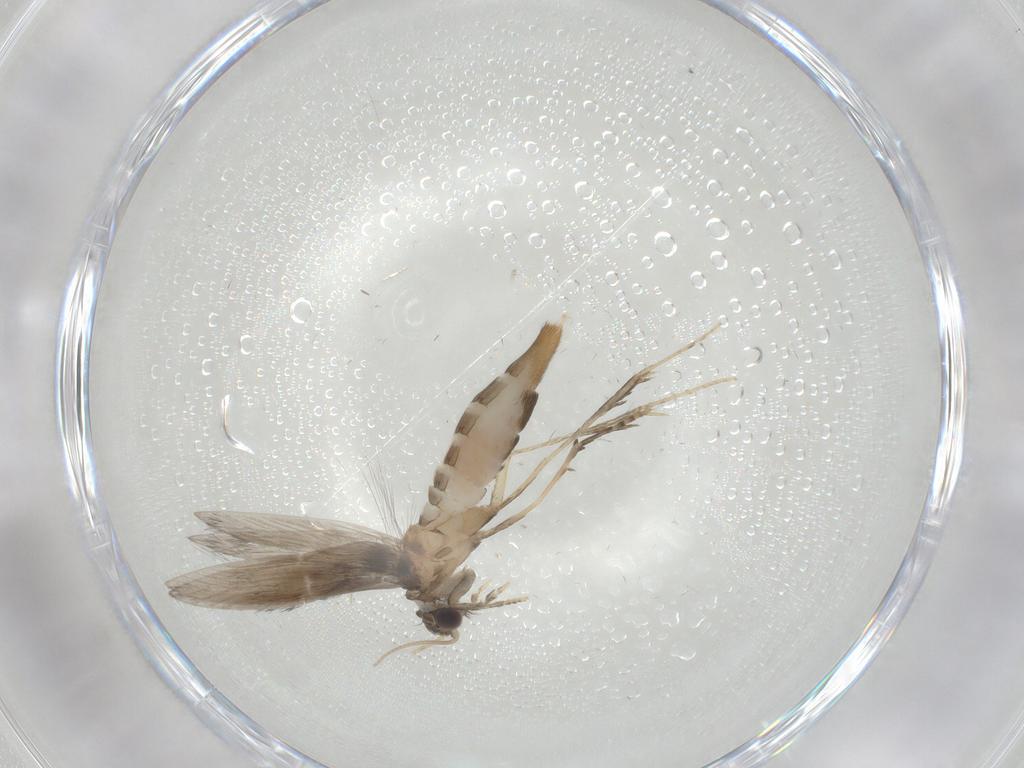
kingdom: Animalia
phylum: Arthropoda
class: Insecta
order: Trichoptera
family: Hydroptilidae
